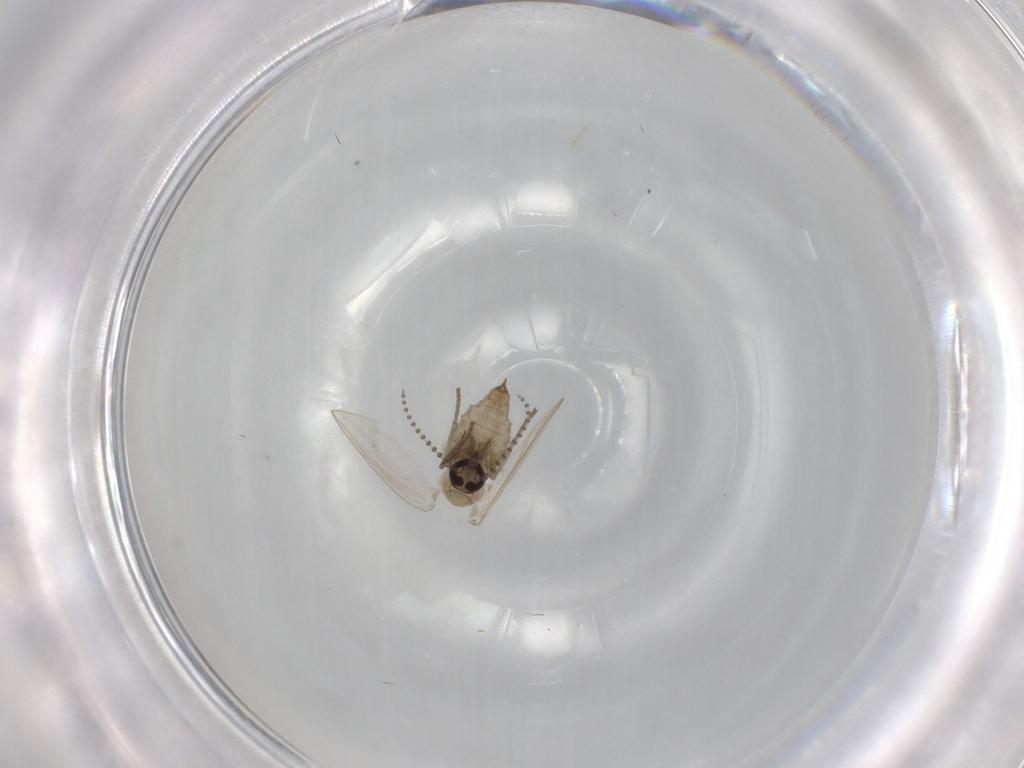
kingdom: Animalia
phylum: Arthropoda
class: Insecta
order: Diptera
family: Psychodidae
